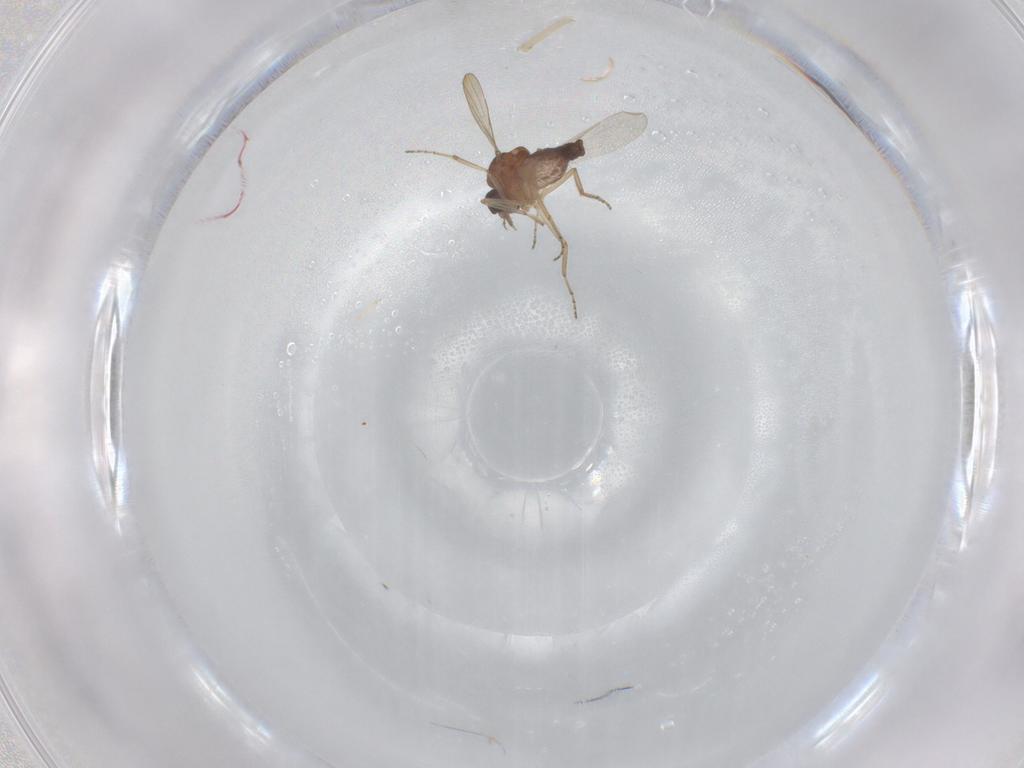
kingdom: Animalia
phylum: Arthropoda
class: Insecta
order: Diptera
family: Ceratopogonidae
